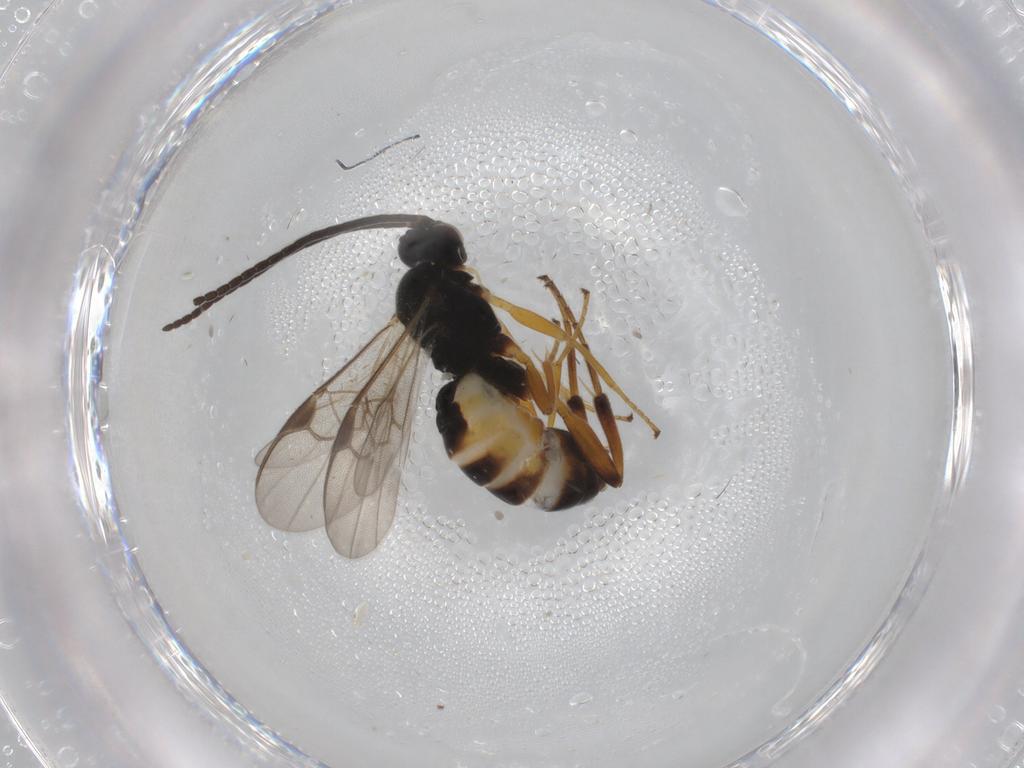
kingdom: Animalia
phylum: Arthropoda
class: Insecta
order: Hymenoptera
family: Braconidae
